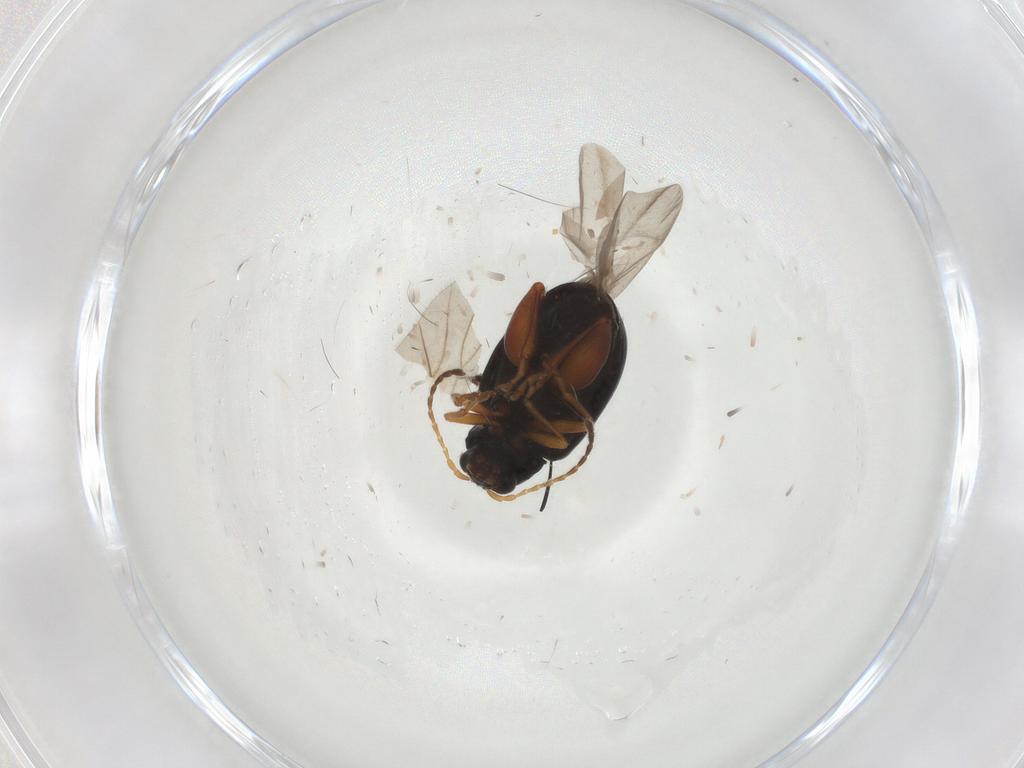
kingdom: Animalia
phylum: Arthropoda
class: Insecta
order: Coleoptera
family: Chrysomelidae
